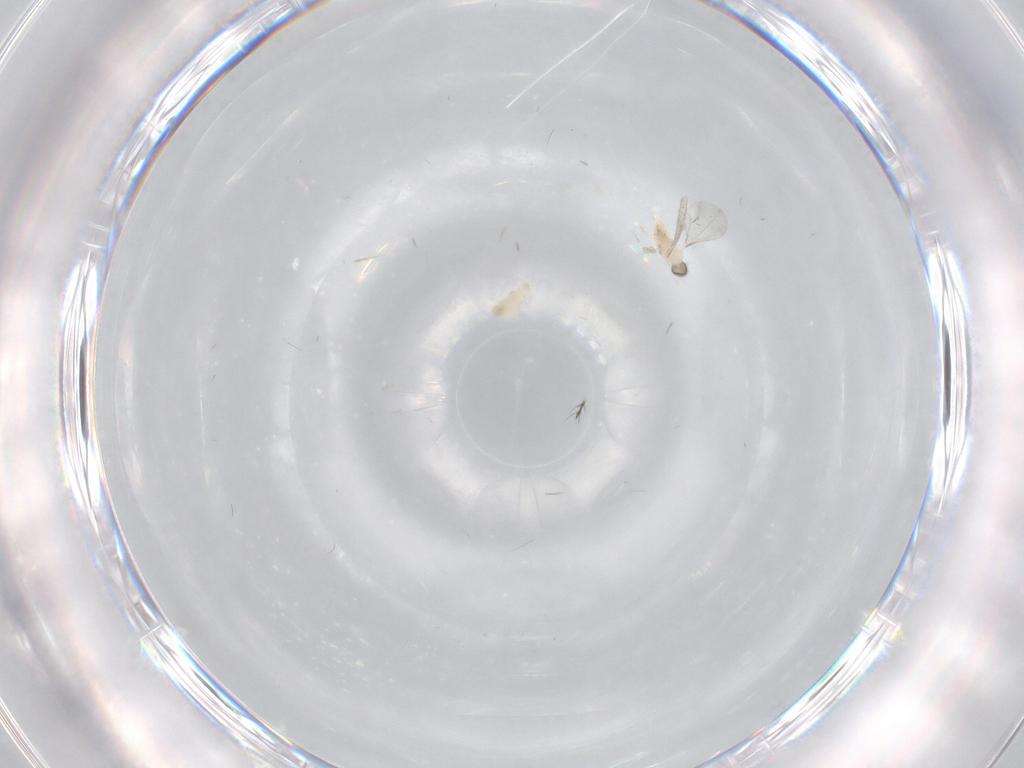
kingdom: Animalia
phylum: Arthropoda
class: Insecta
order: Diptera
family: Cecidomyiidae
